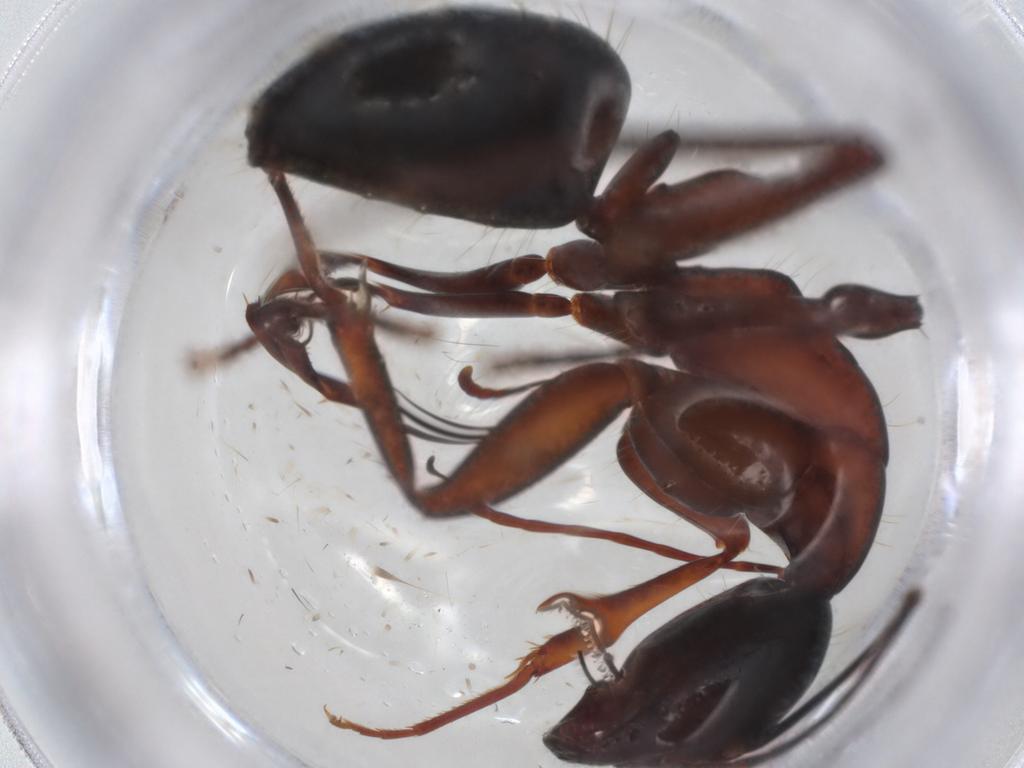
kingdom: Animalia
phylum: Arthropoda
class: Insecta
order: Hymenoptera
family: Formicidae
